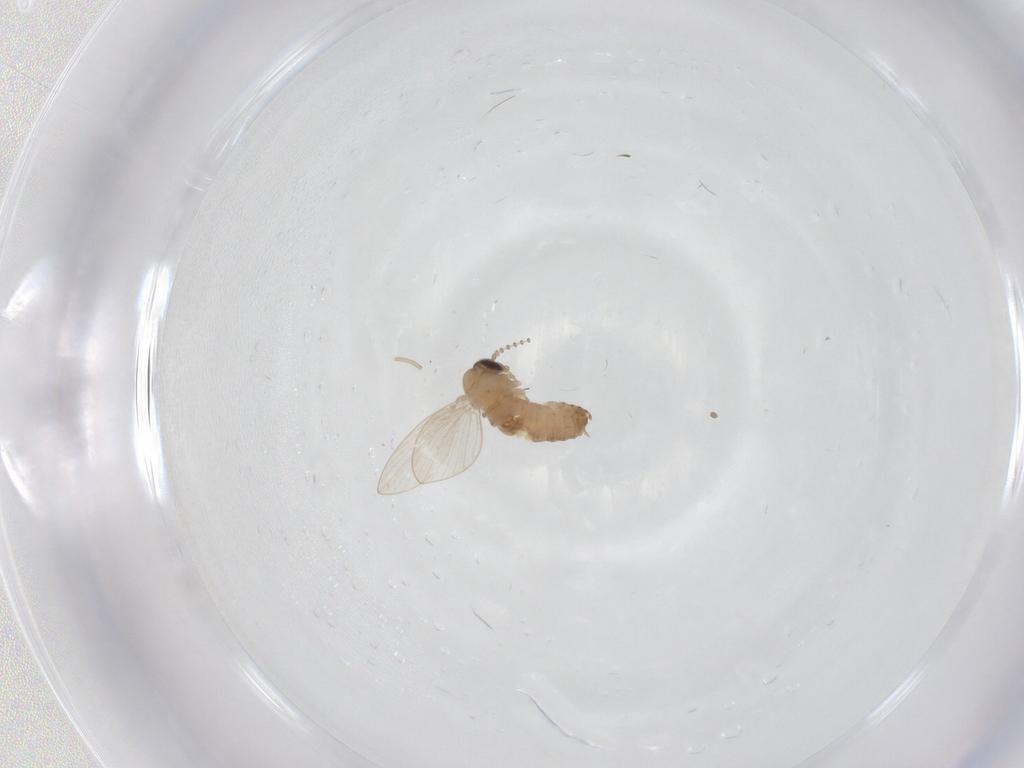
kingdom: Animalia
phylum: Arthropoda
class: Insecta
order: Diptera
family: Psychodidae
